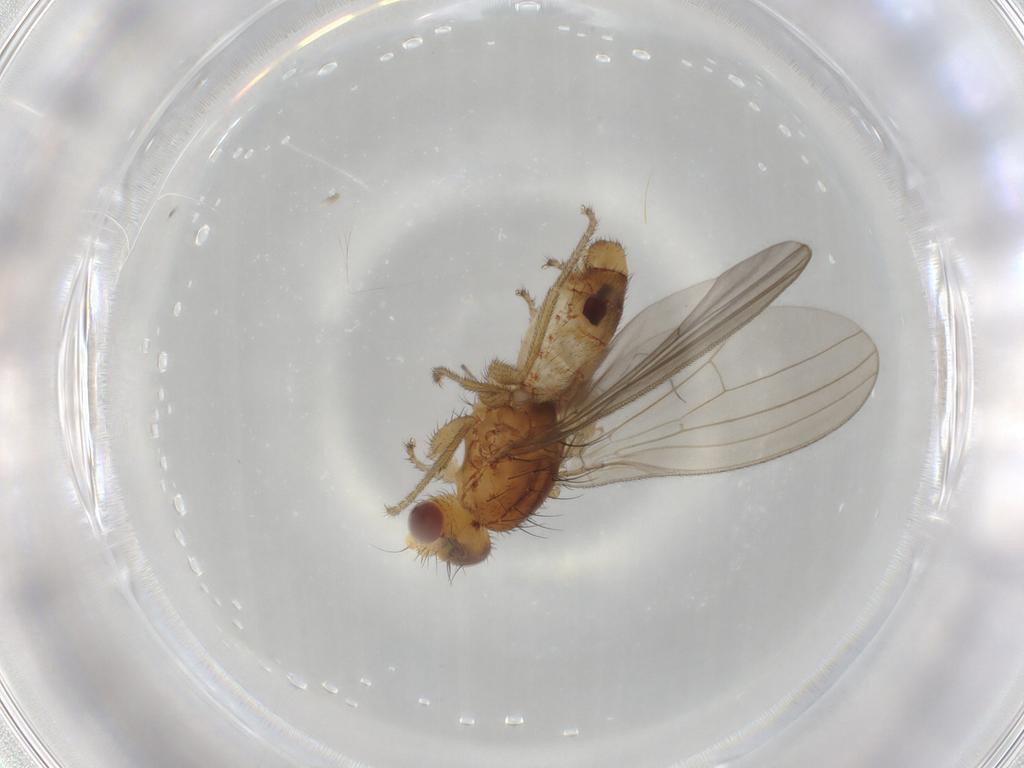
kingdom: Animalia
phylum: Arthropoda
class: Insecta
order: Diptera
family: Natalimyzidae
